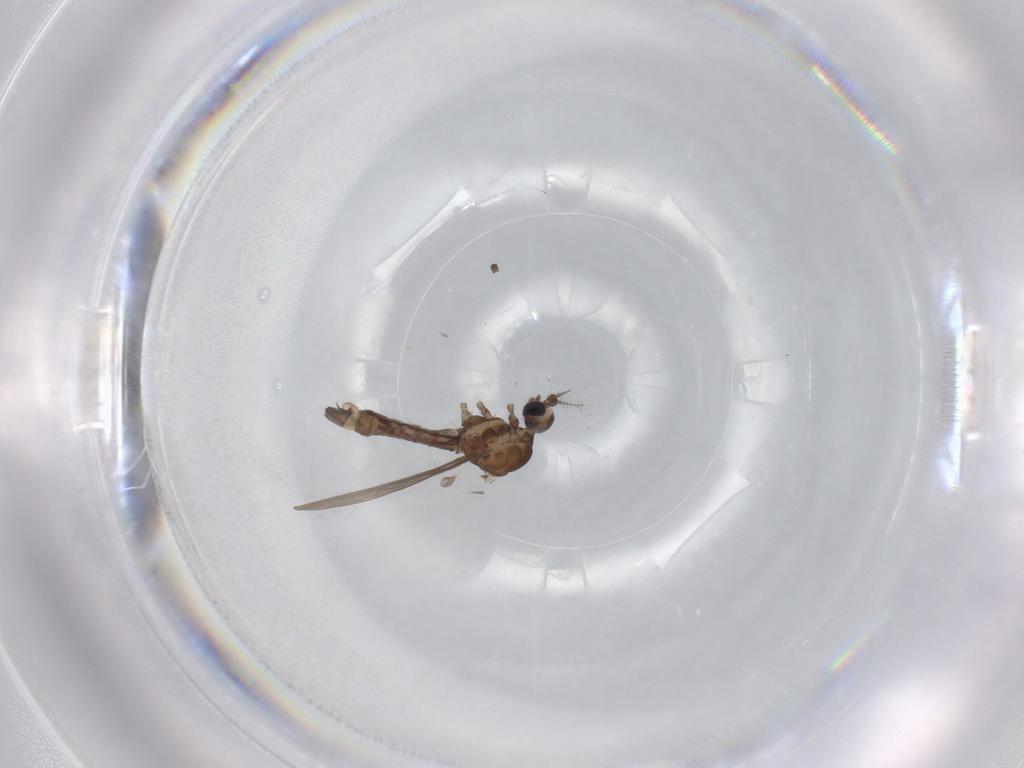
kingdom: Animalia
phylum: Arthropoda
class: Insecta
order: Diptera
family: Limoniidae
